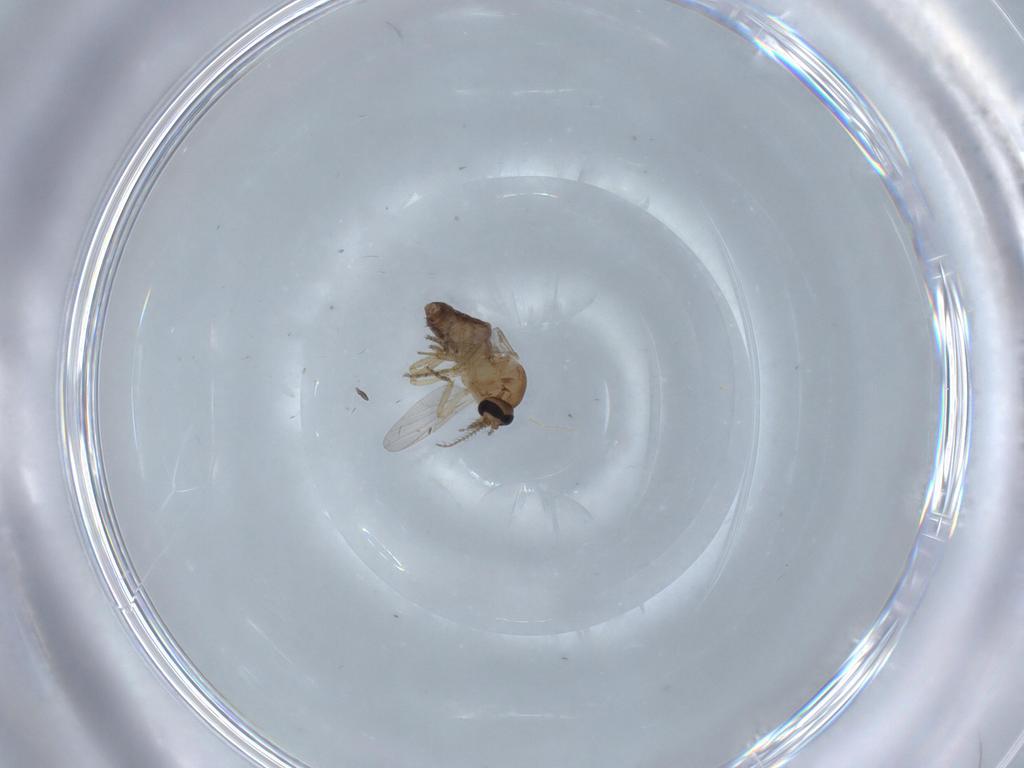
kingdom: Animalia
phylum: Arthropoda
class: Insecta
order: Diptera
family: Ceratopogonidae
